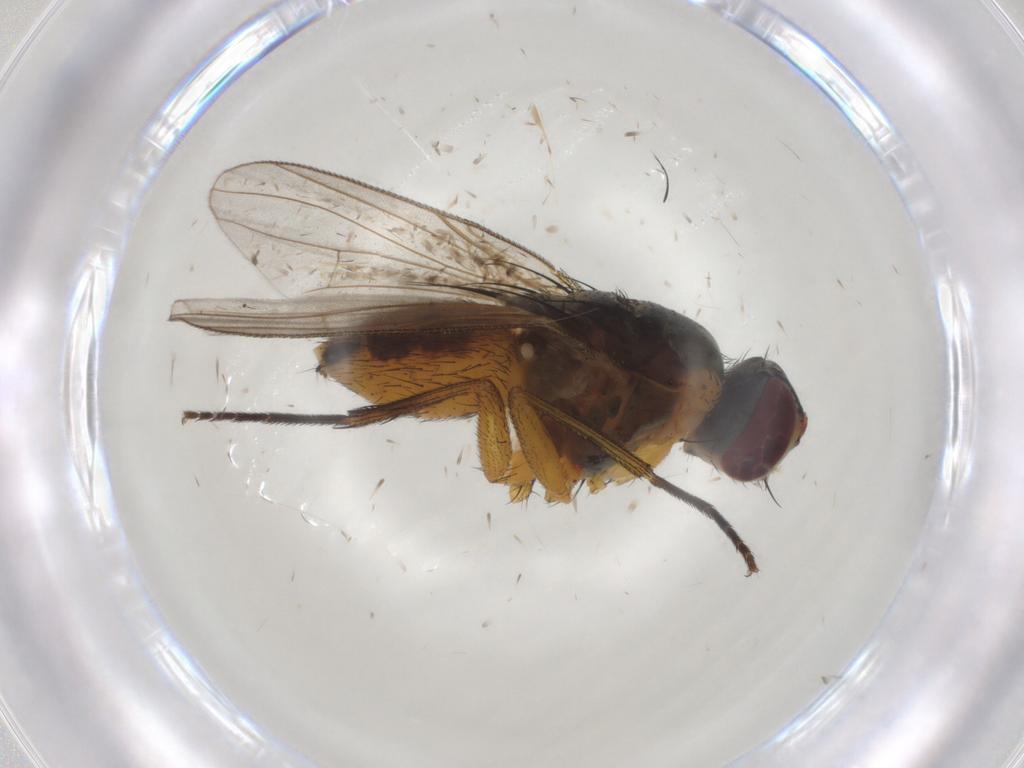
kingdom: Animalia
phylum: Arthropoda
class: Insecta
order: Diptera
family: Muscidae
